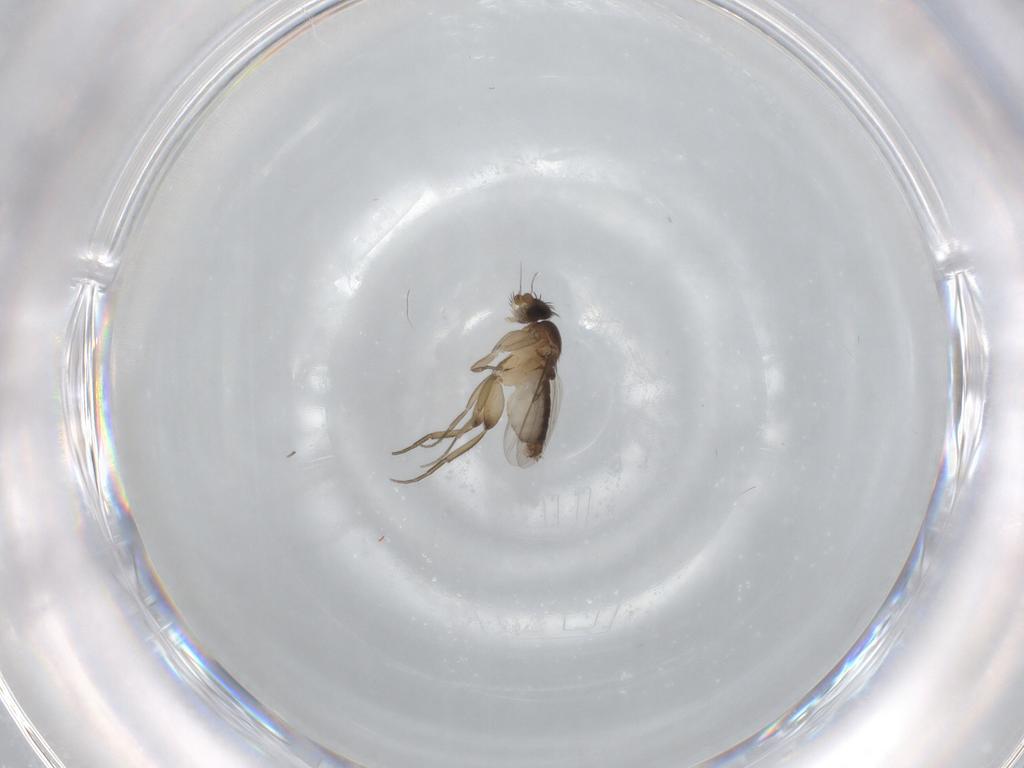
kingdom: Animalia
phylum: Arthropoda
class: Insecta
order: Diptera
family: Phoridae
